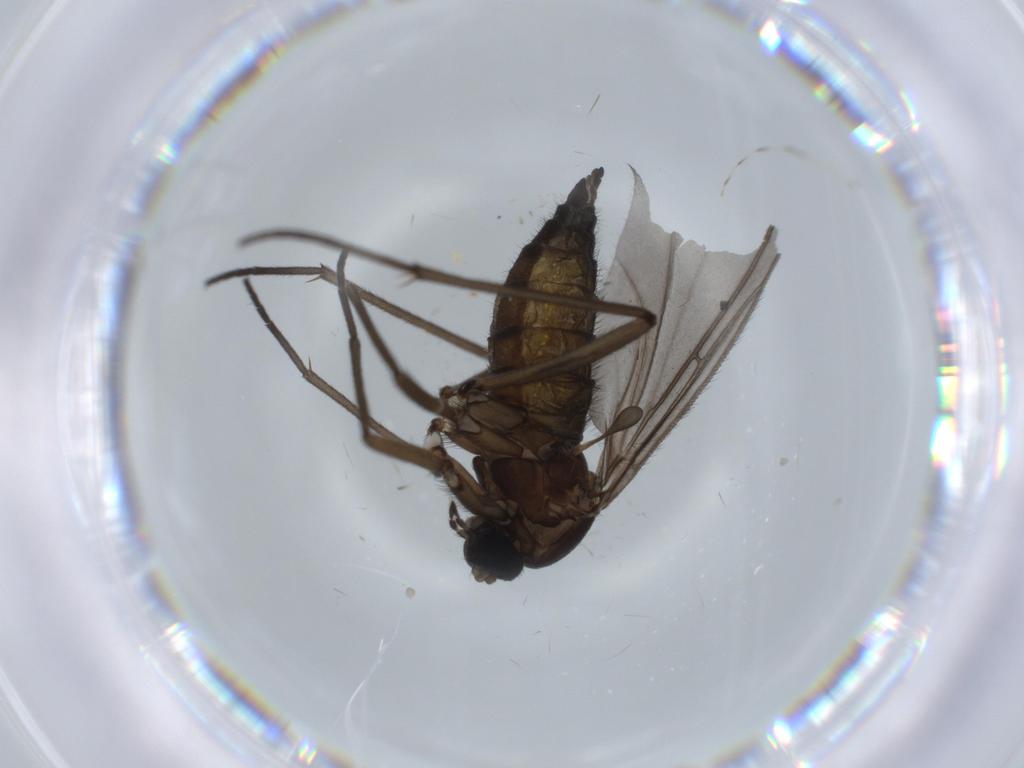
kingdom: Animalia
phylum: Arthropoda
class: Insecta
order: Diptera
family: Sciaridae
